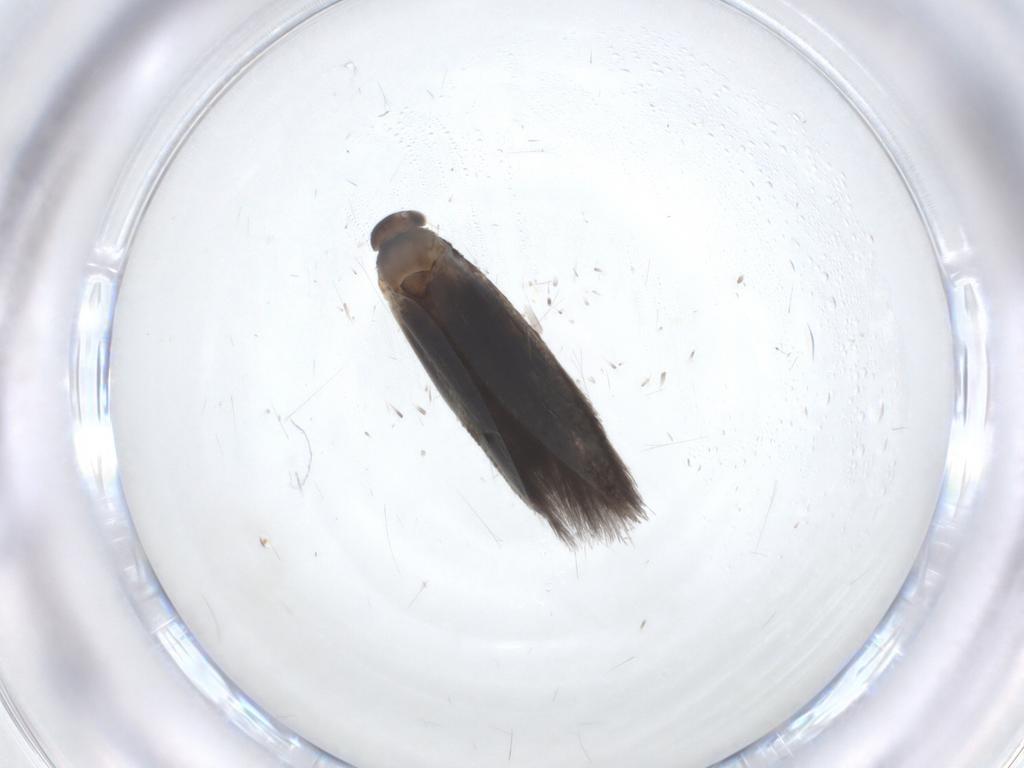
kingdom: Animalia
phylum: Arthropoda
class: Insecta
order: Lepidoptera
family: Elachistidae
